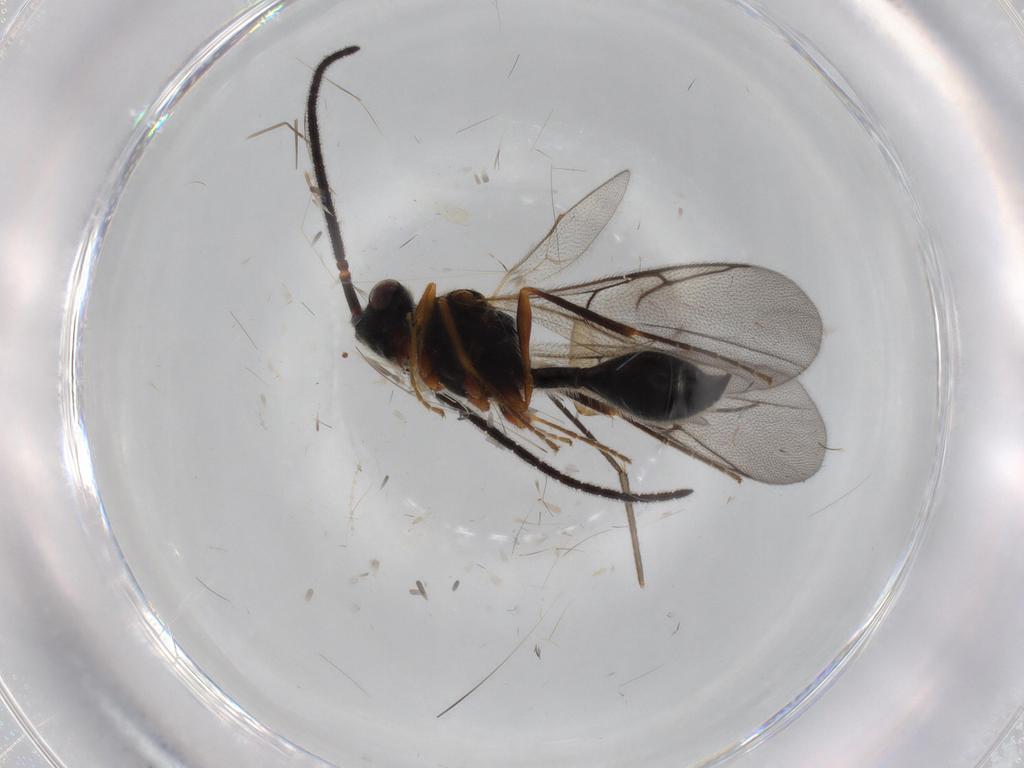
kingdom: Animalia
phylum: Arthropoda
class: Insecta
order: Hymenoptera
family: Diapriidae
